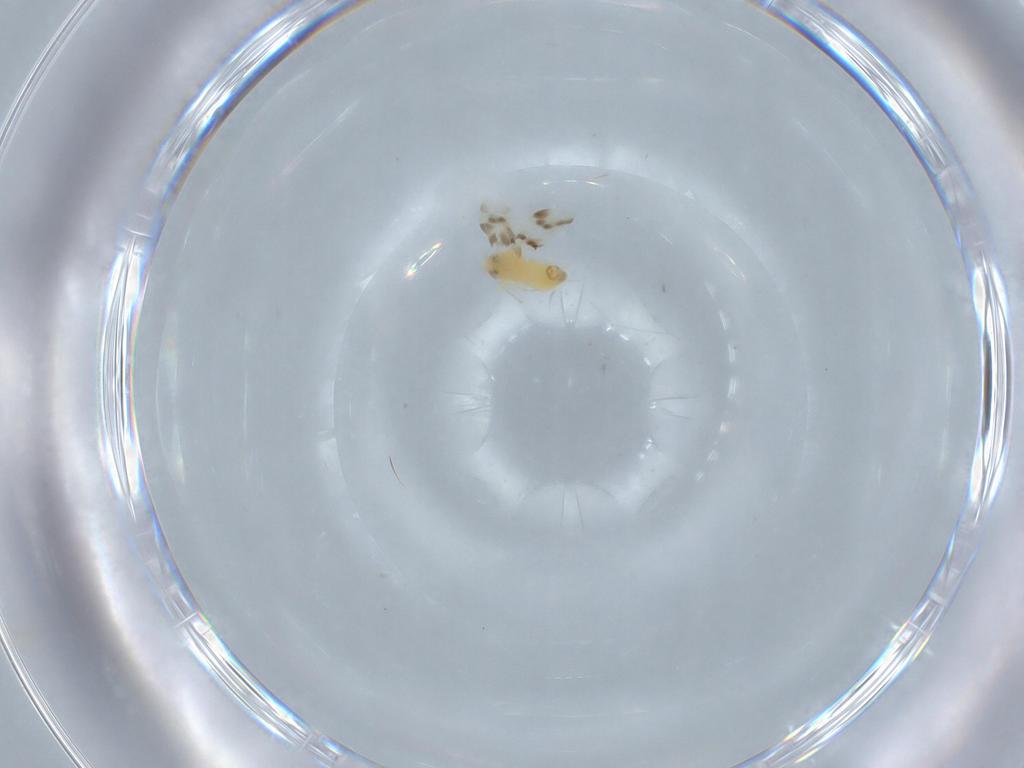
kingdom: Animalia
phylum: Arthropoda
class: Insecta
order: Hemiptera
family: Aleyrodidae
